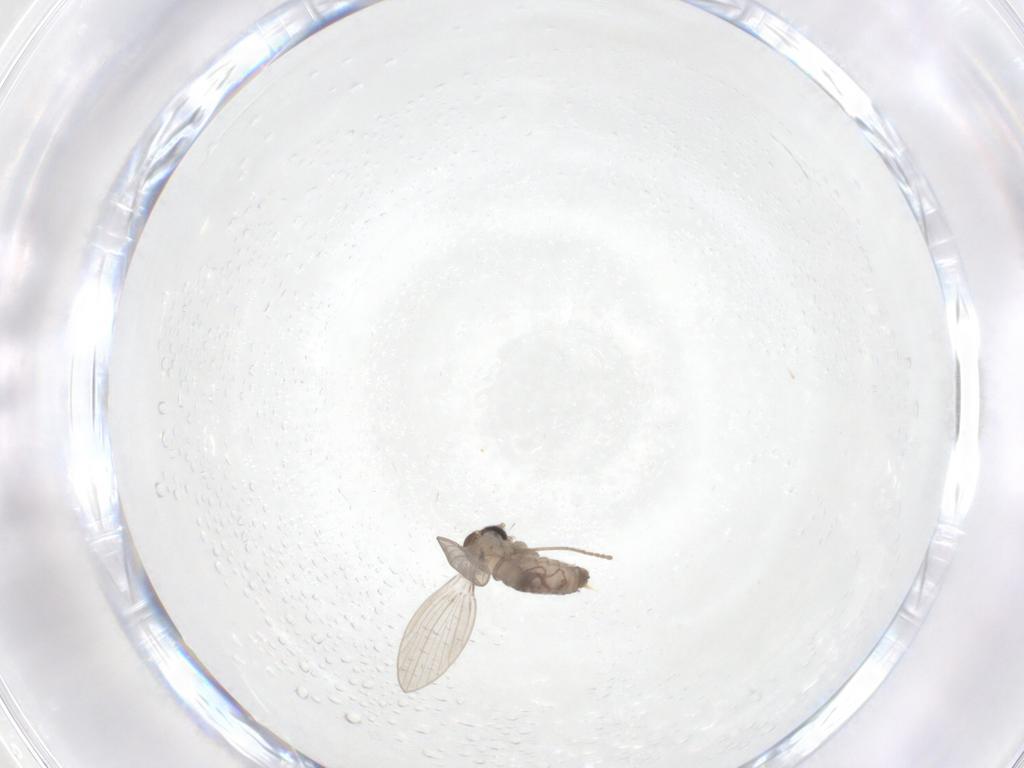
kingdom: Animalia
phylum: Arthropoda
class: Insecta
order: Diptera
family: Psychodidae
